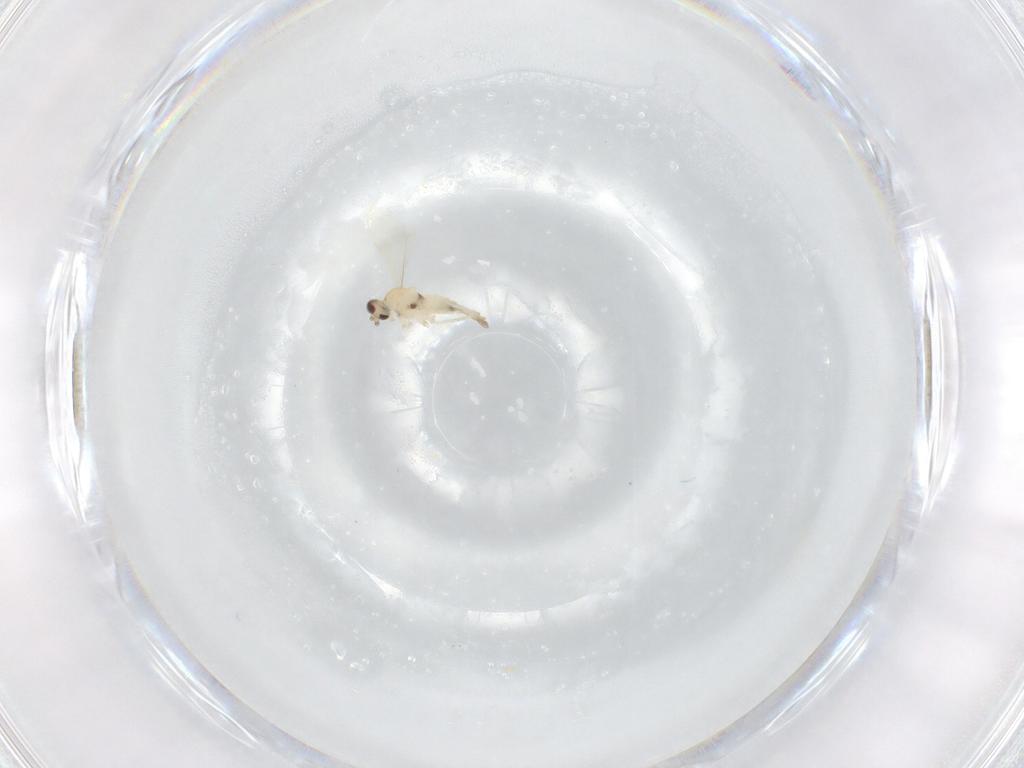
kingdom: Animalia
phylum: Arthropoda
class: Insecta
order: Diptera
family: Cecidomyiidae
